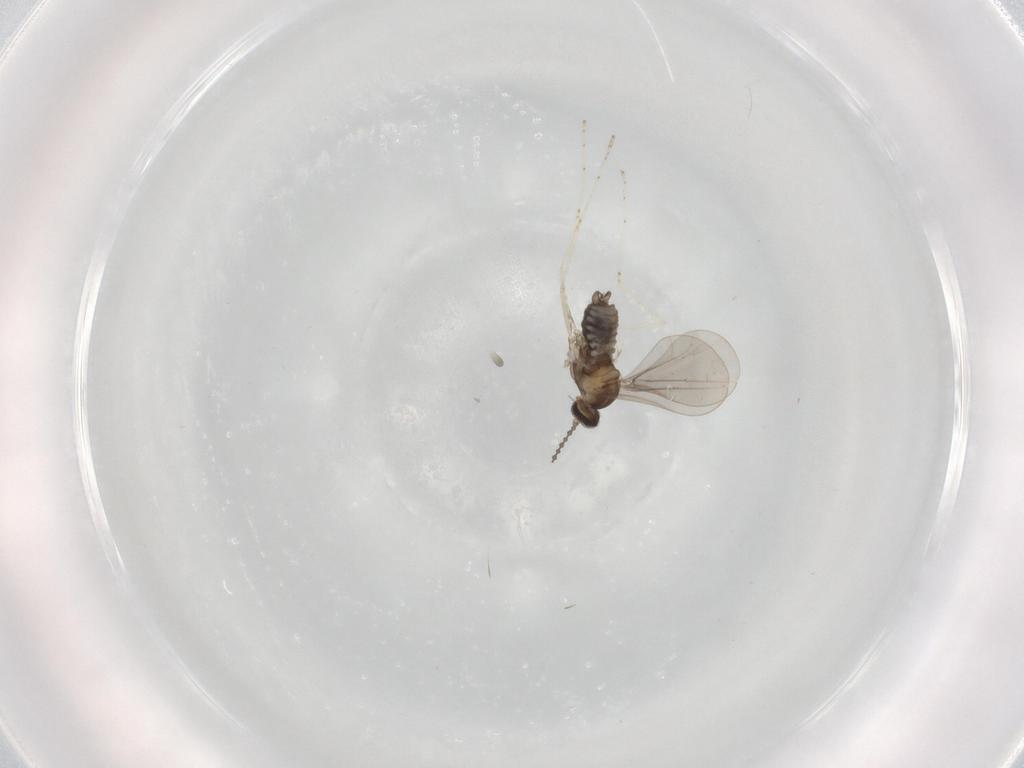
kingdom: Animalia
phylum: Arthropoda
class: Insecta
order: Diptera
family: Cecidomyiidae
